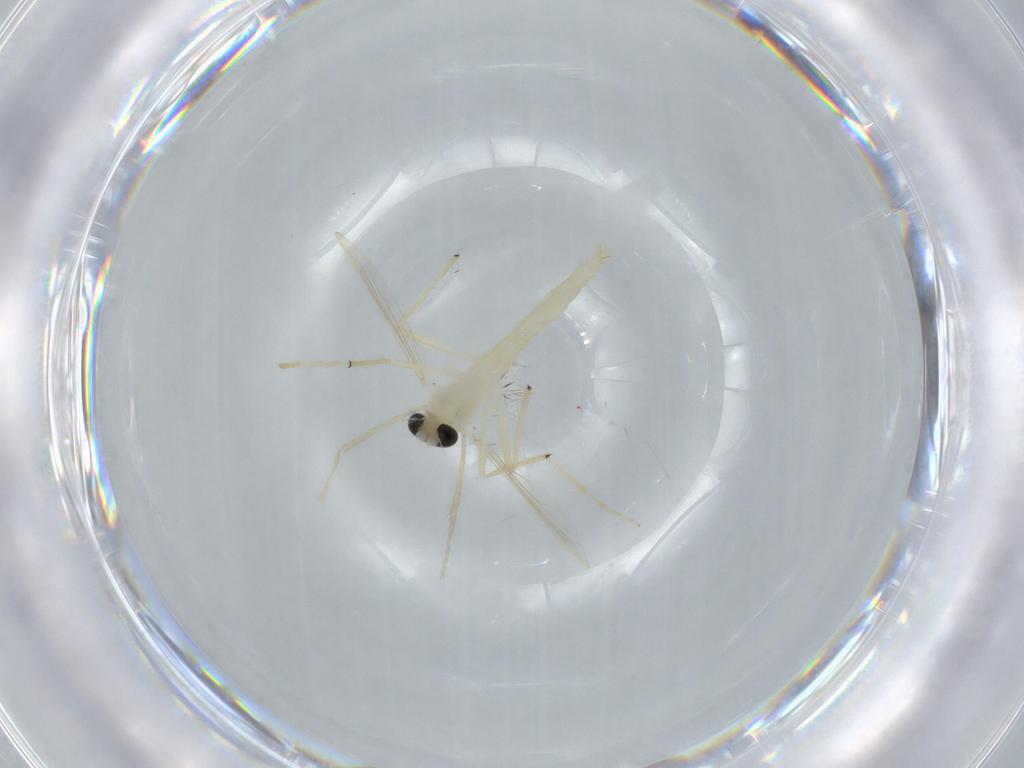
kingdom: Animalia
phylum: Arthropoda
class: Insecta
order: Diptera
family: Chironomidae
